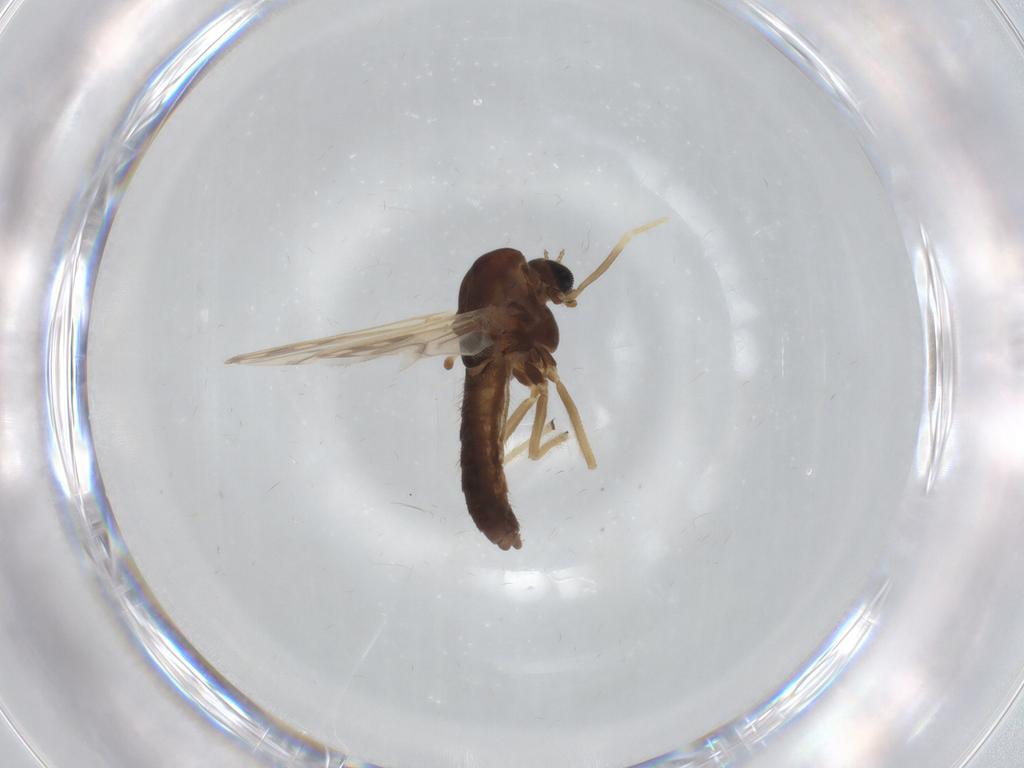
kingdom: Animalia
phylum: Arthropoda
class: Insecta
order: Diptera
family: Chironomidae
